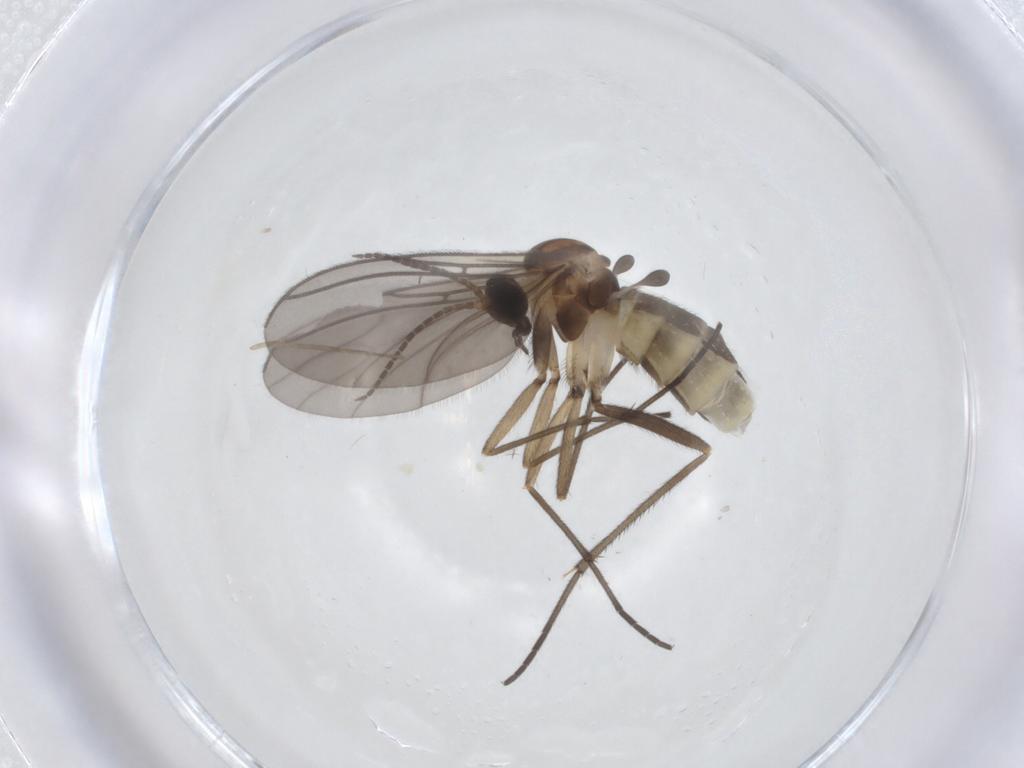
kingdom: Animalia
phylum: Arthropoda
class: Insecta
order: Diptera
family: Sciaridae
